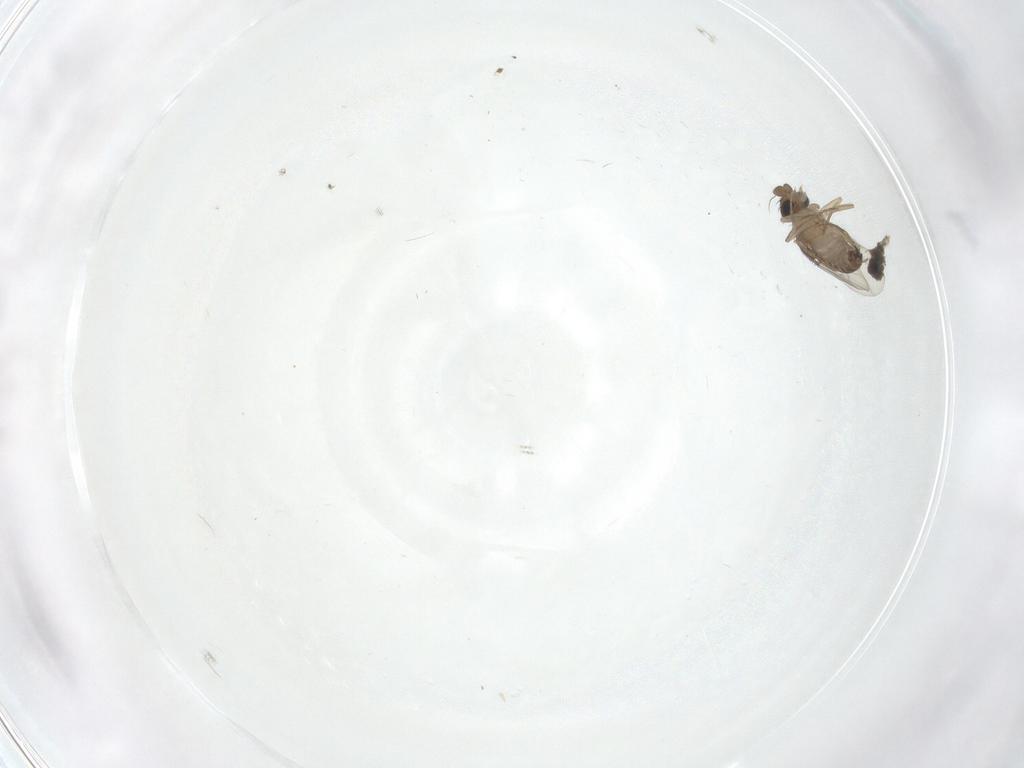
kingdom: Animalia
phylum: Arthropoda
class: Insecta
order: Diptera
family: Phoridae
